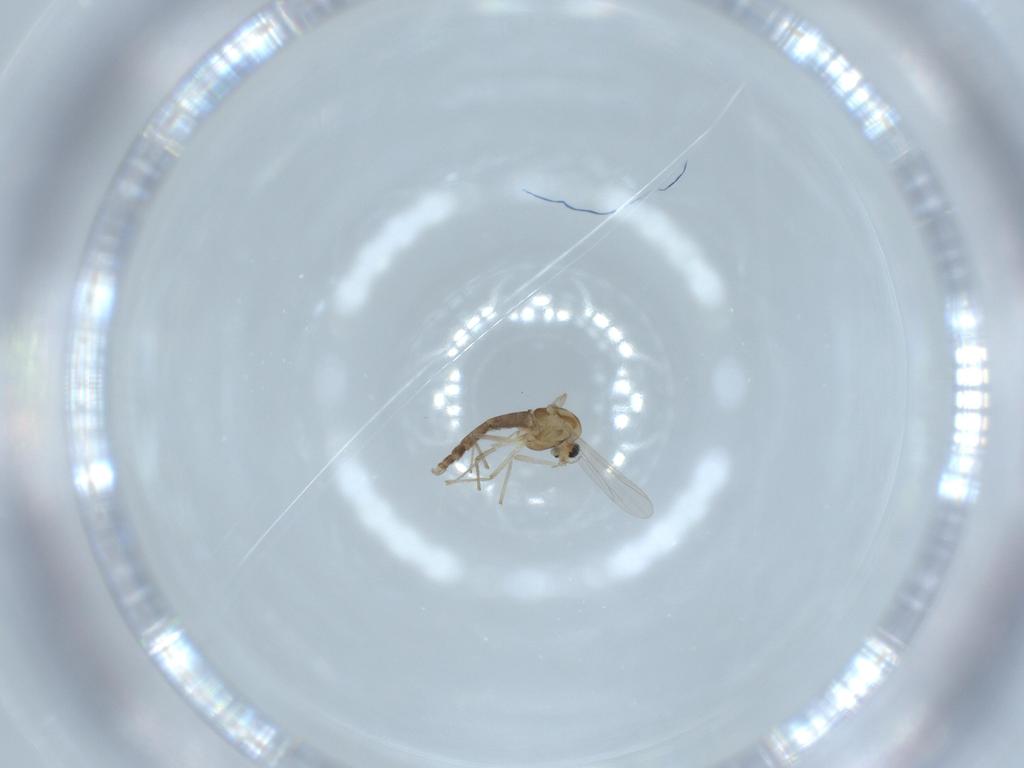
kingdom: Animalia
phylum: Arthropoda
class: Insecta
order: Diptera
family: Chironomidae
